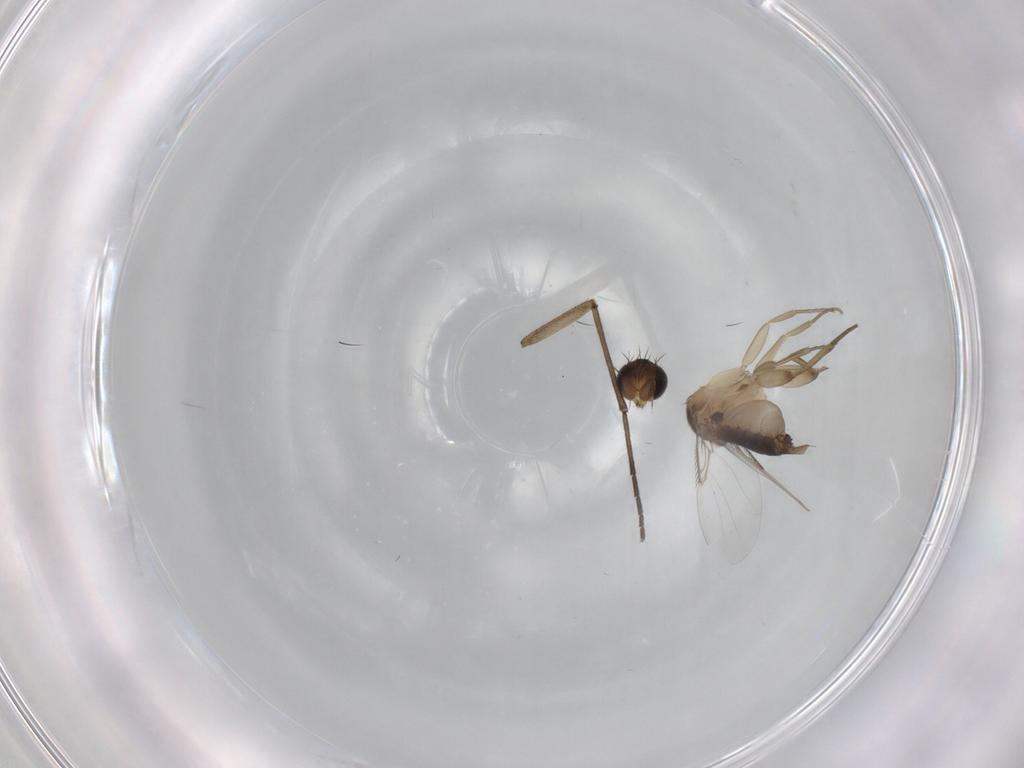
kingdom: Animalia
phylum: Arthropoda
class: Insecta
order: Diptera
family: Phoridae
